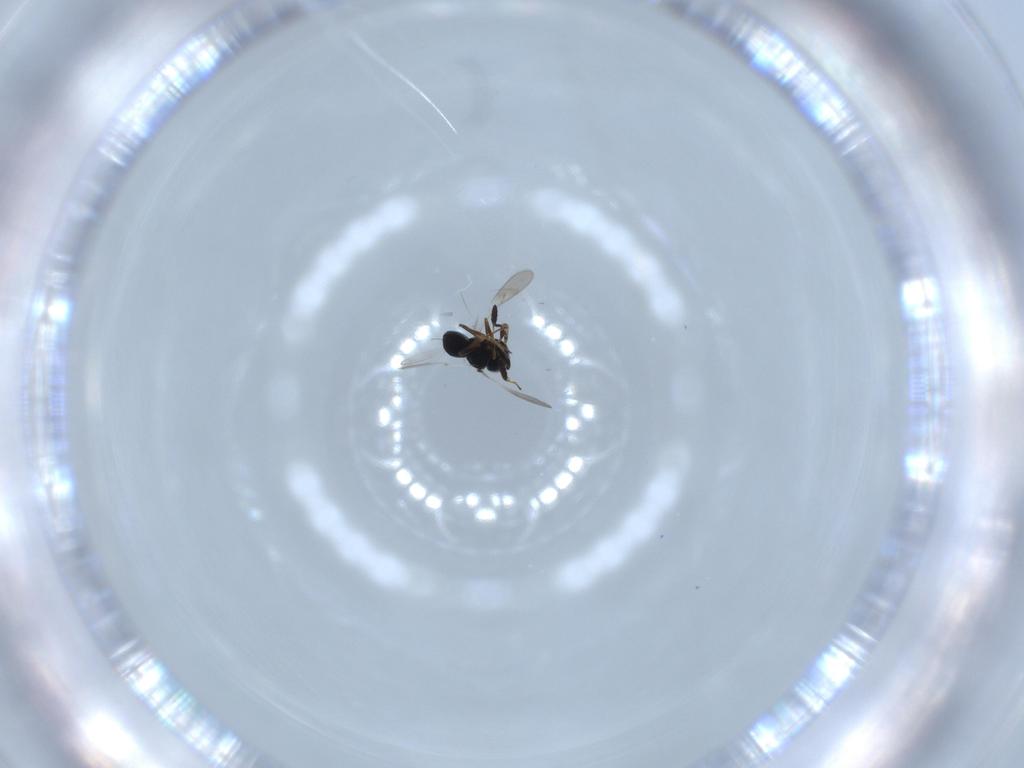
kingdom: Animalia
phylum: Arthropoda
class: Insecta
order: Hymenoptera
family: Scelionidae
